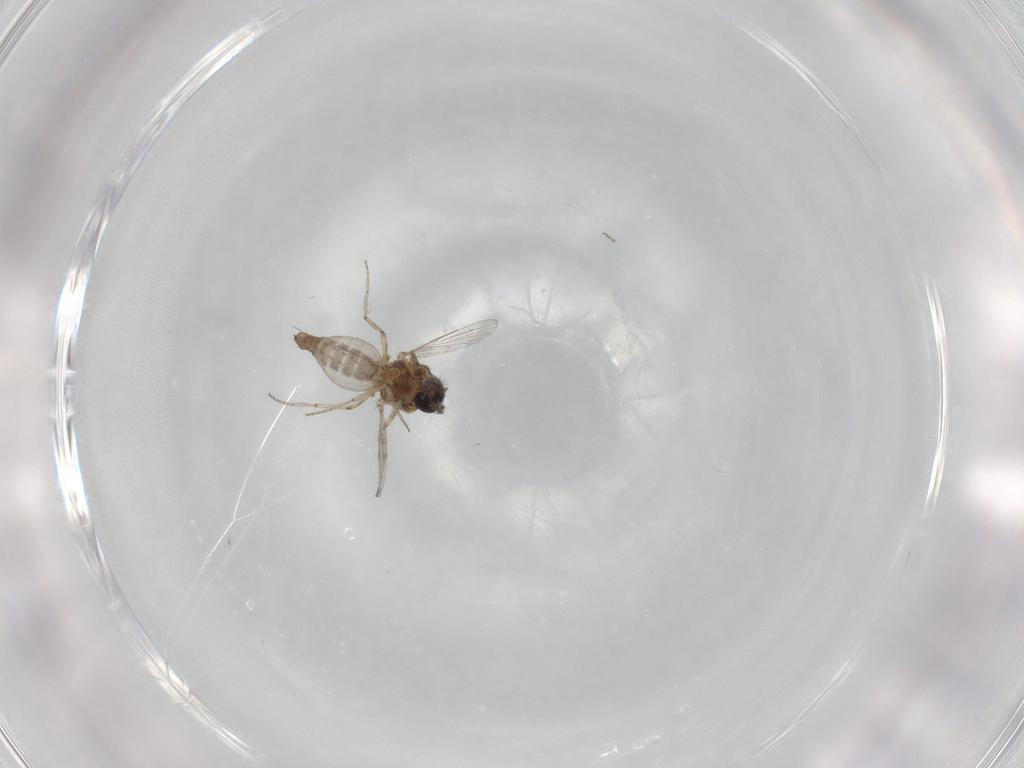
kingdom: Animalia
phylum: Arthropoda
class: Insecta
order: Diptera
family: Ceratopogonidae
